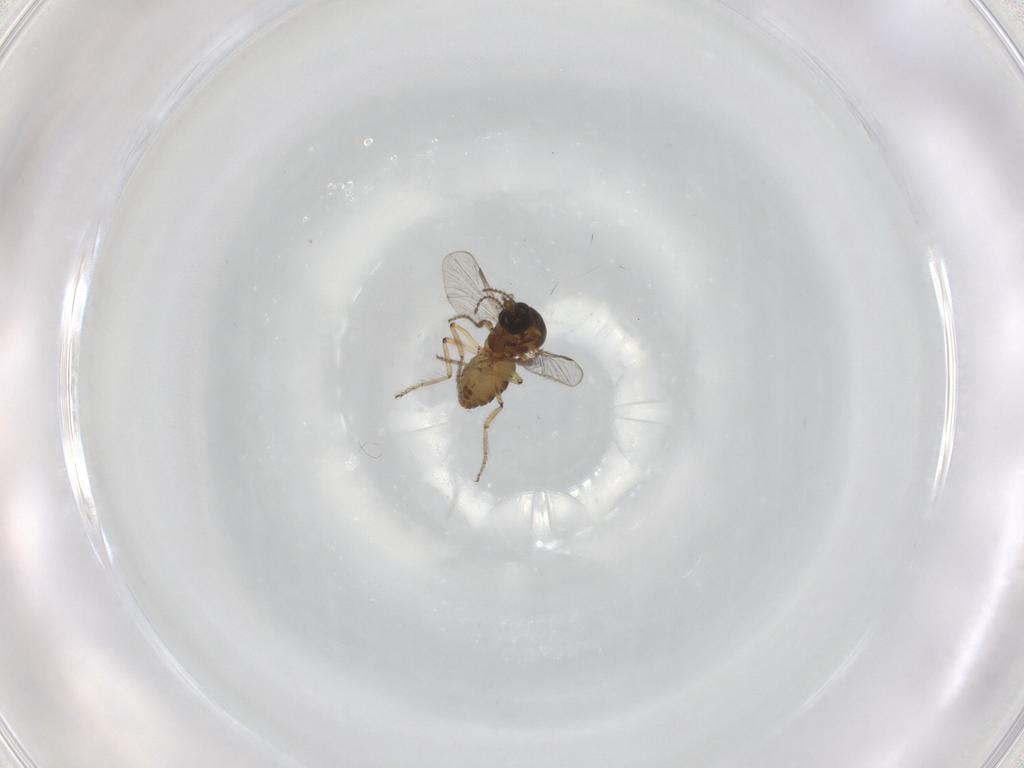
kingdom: Animalia
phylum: Arthropoda
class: Insecta
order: Diptera
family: Ceratopogonidae
